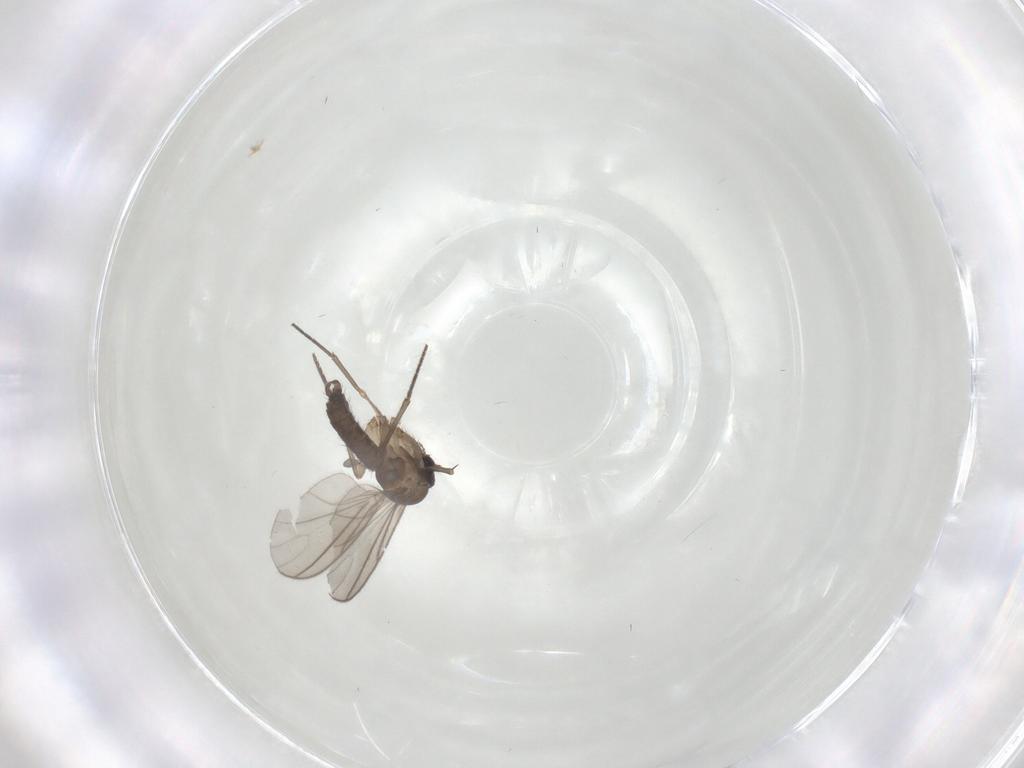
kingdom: Animalia
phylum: Arthropoda
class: Insecta
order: Diptera
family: Sciaridae
